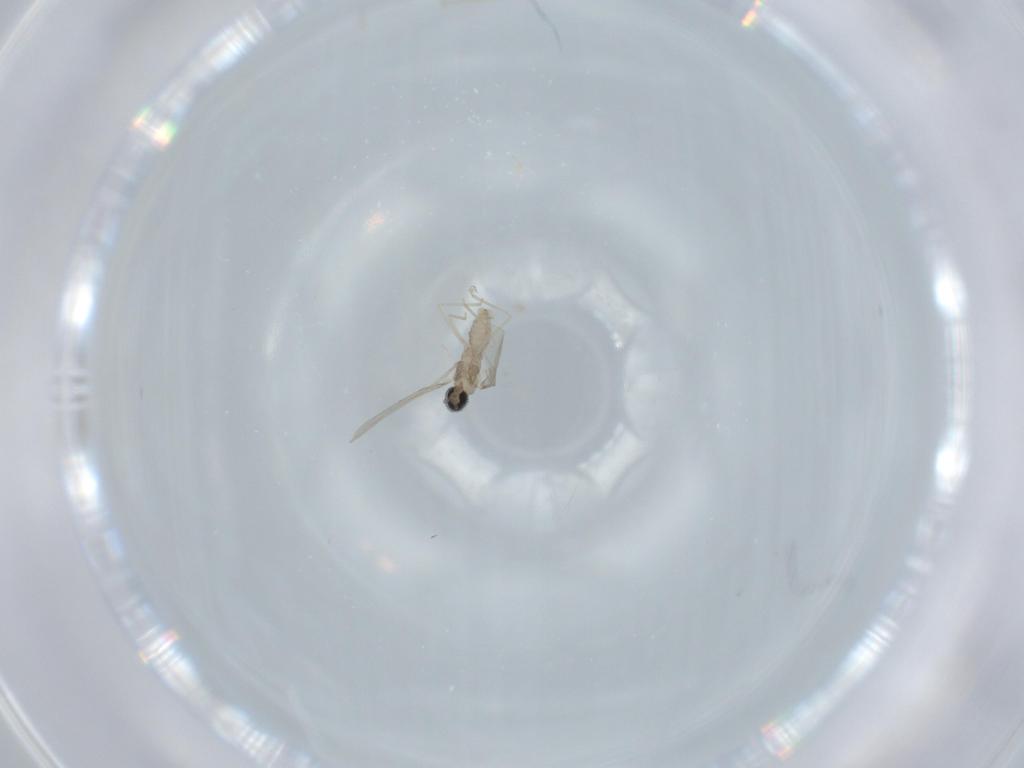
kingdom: Animalia
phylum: Arthropoda
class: Insecta
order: Diptera
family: Cecidomyiidae
